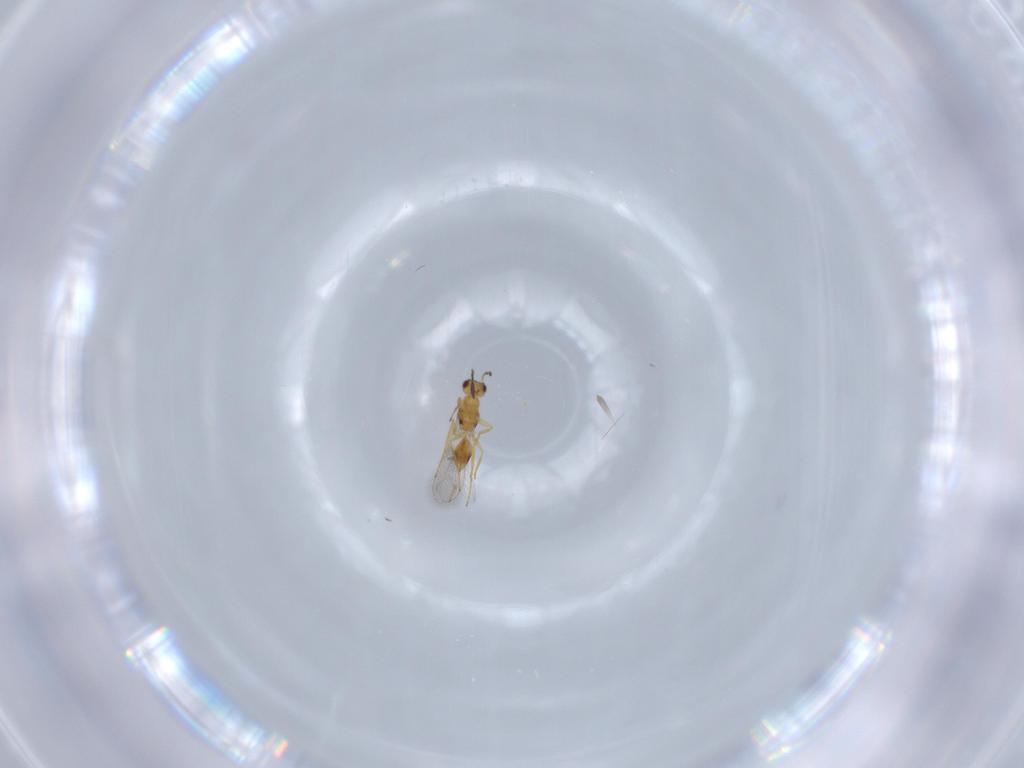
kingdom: Animalia
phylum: Arthropoda
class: Insecta
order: Hymenoptera
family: Mymaridae
